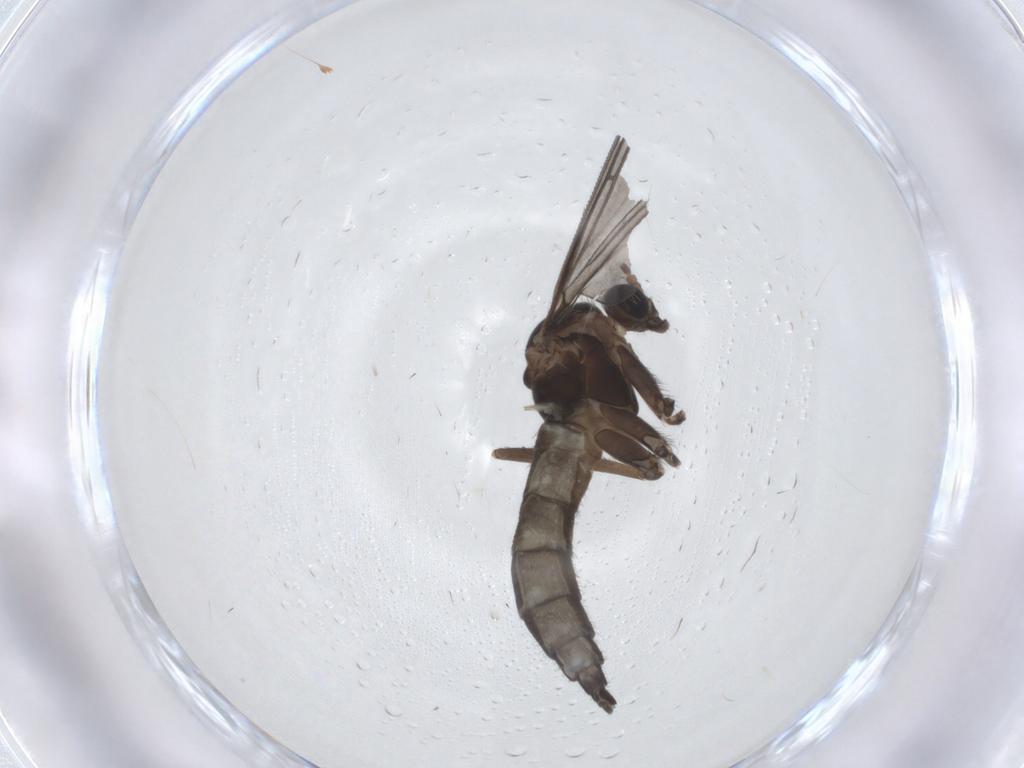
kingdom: Animalia
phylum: Arthropoda
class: Insecta
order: Diptera
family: Sciaridae
